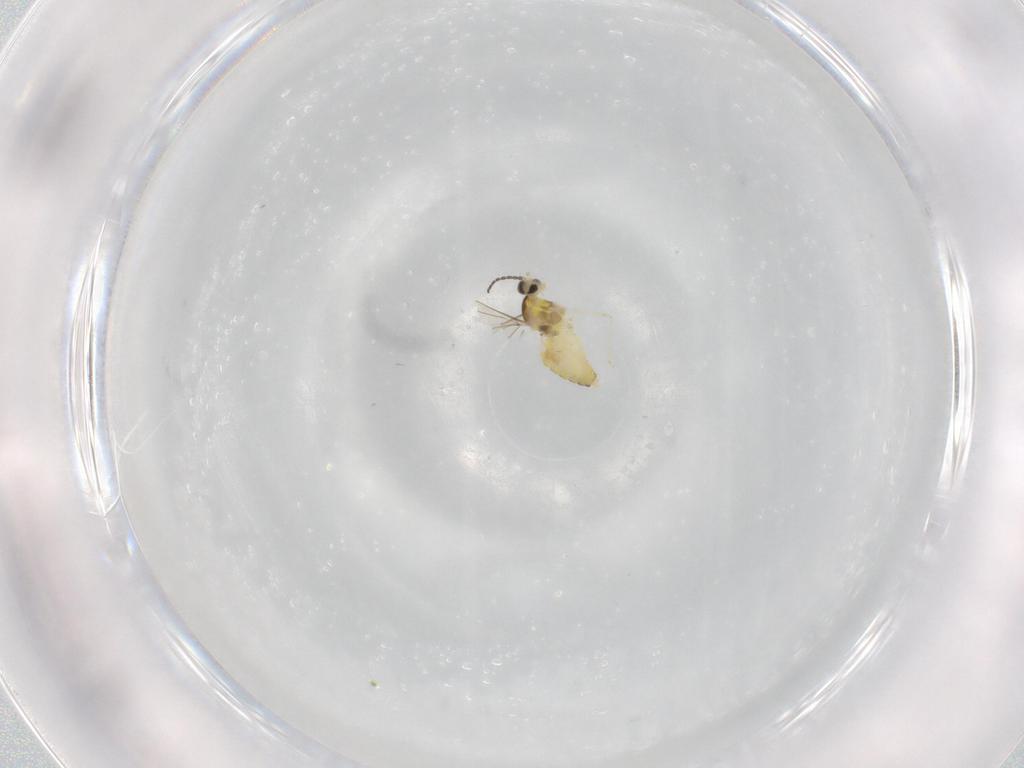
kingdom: Animalia
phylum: Arthropoda
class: Insecta
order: Diptera
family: Cecidomyiidae
